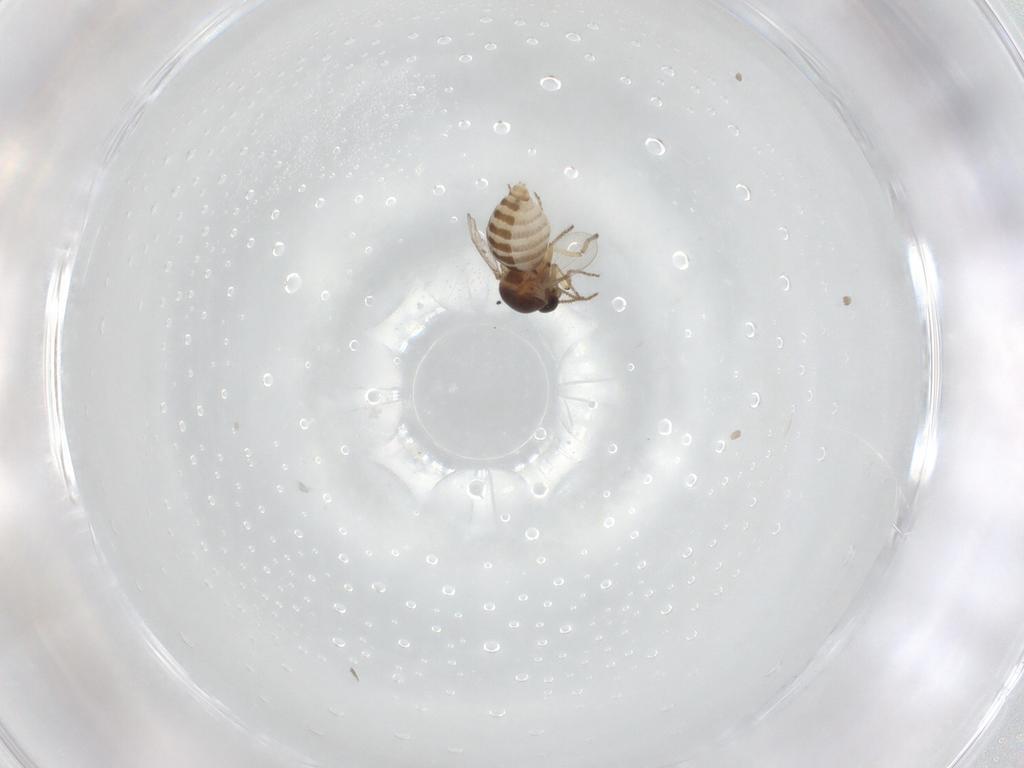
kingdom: Animalia
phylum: Arthropoda
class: Insecta
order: Diptera
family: Ceratopogonidae
